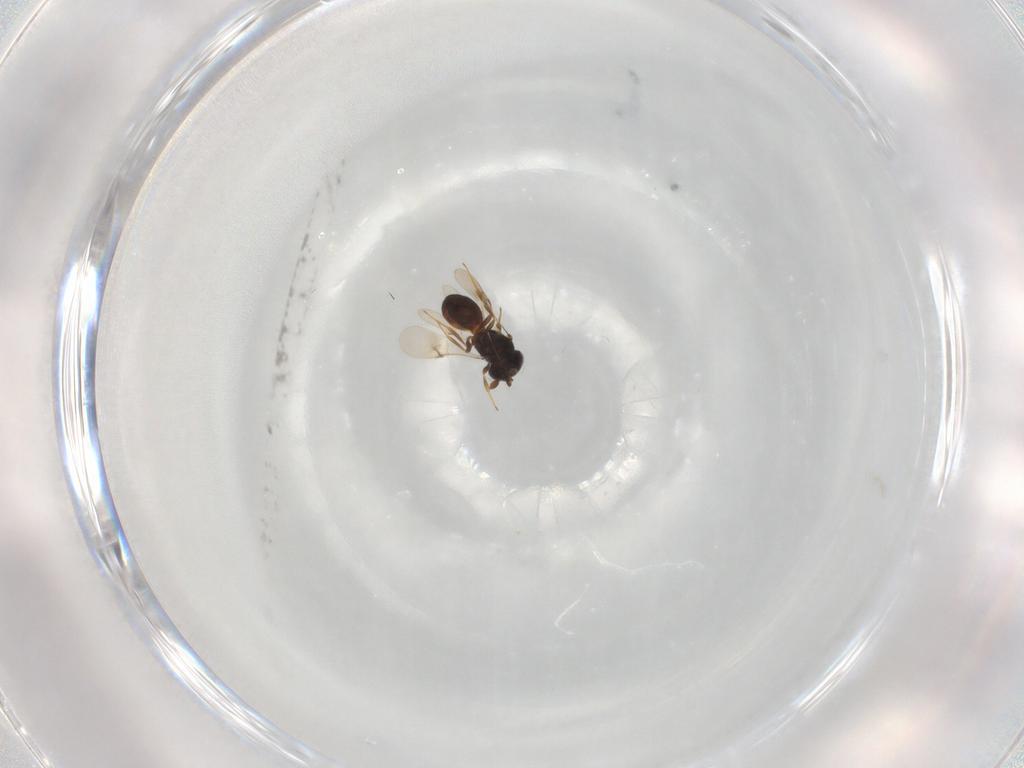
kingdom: Animalia
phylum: Arthropoda
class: Arachnida
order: Araneae
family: Pholcidae
